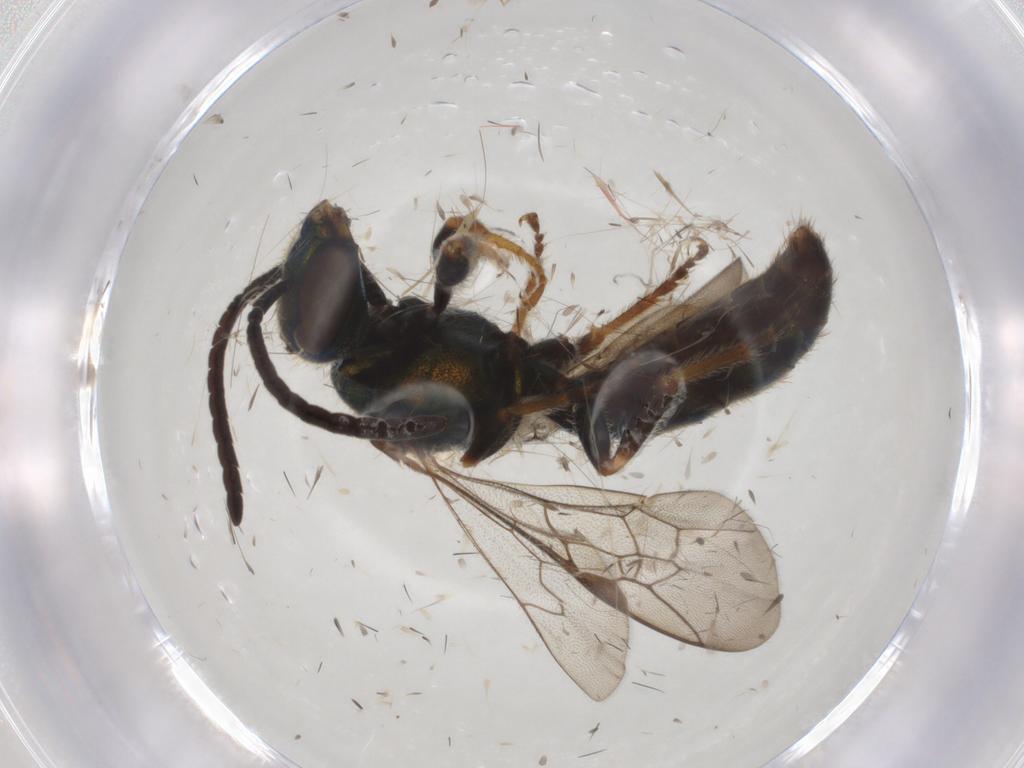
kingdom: Animalia
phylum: Arthropoda
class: Insecta
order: Hymenoptera
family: Halictidae
